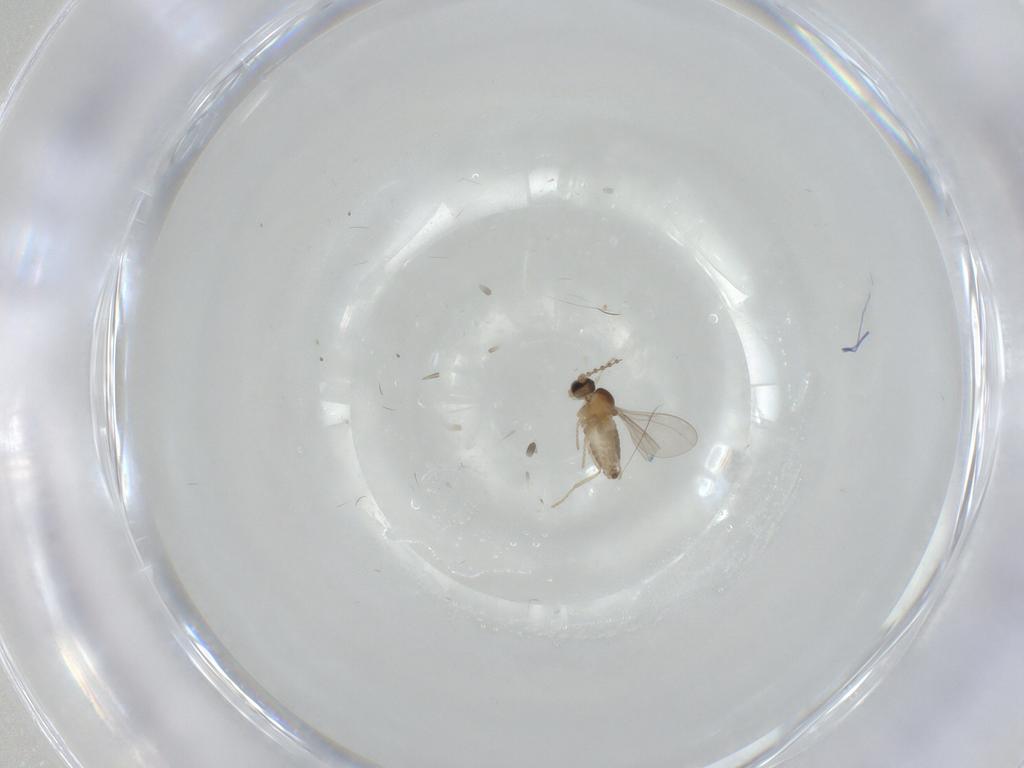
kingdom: Animalia
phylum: Arthropoda
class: Insecta
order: Diptera
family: Cecidomyiidae
